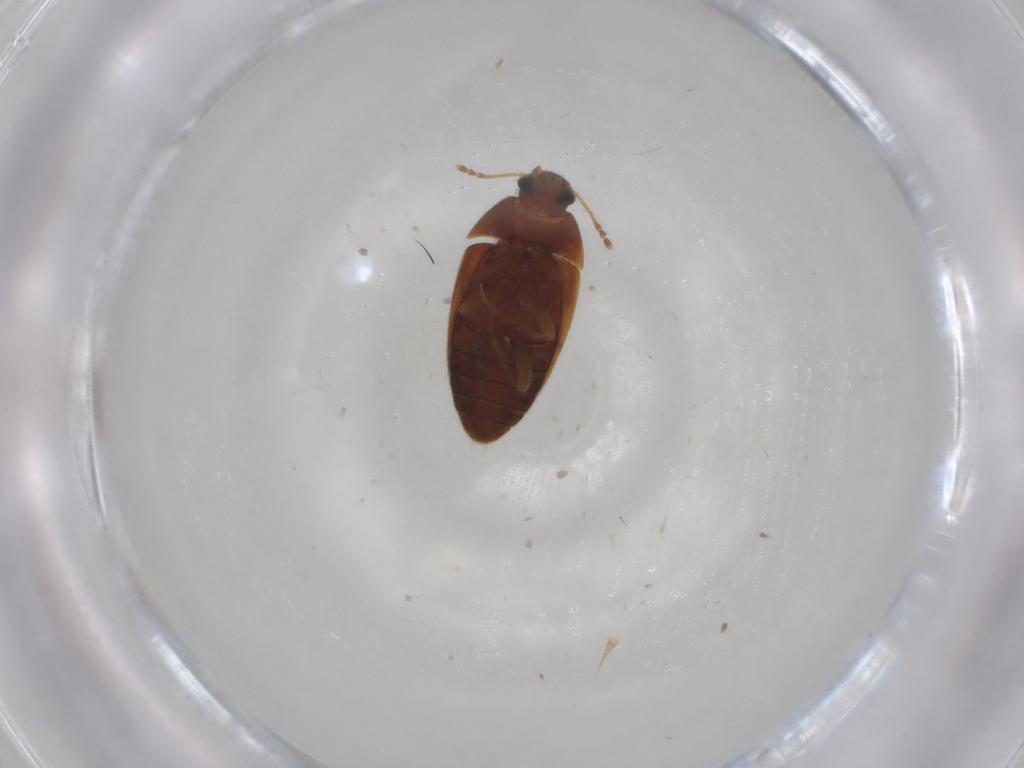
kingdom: Animalia
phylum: Arthropoda
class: Insecta
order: Coleoptera
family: Mycetophagidae
